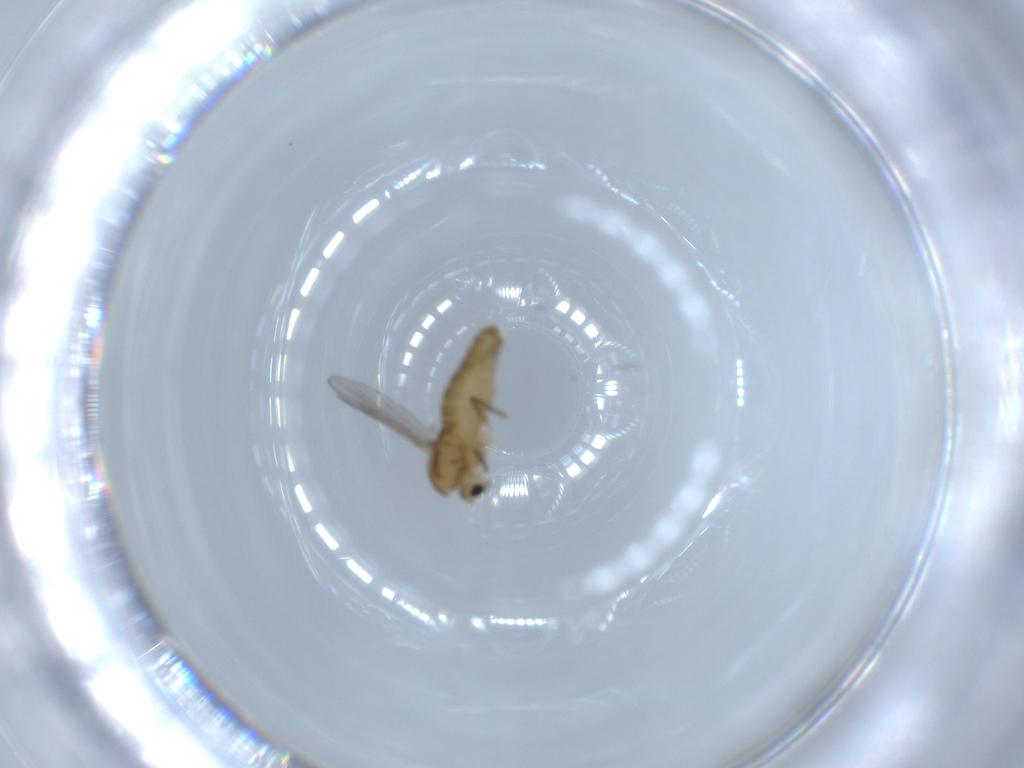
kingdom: Animalia
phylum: Arthropoda
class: Insecta
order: Diptera
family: Chironomidae
